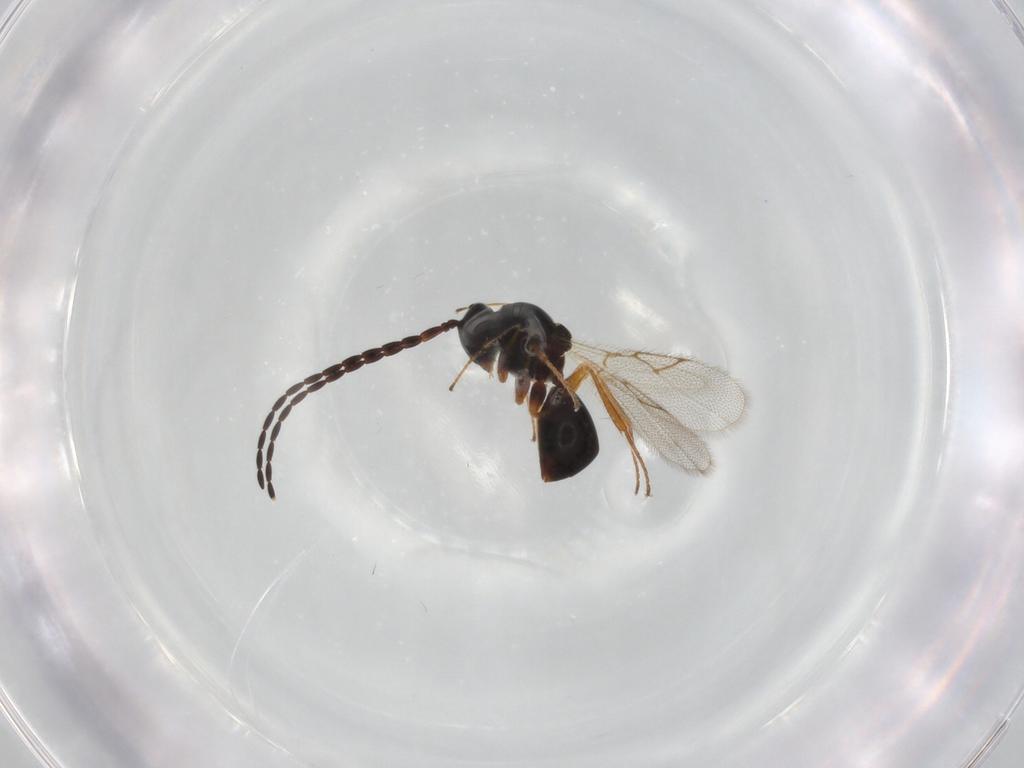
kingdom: Animalia
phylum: Arthropoda
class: Insecta
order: Hymenoptera
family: Figitidae
